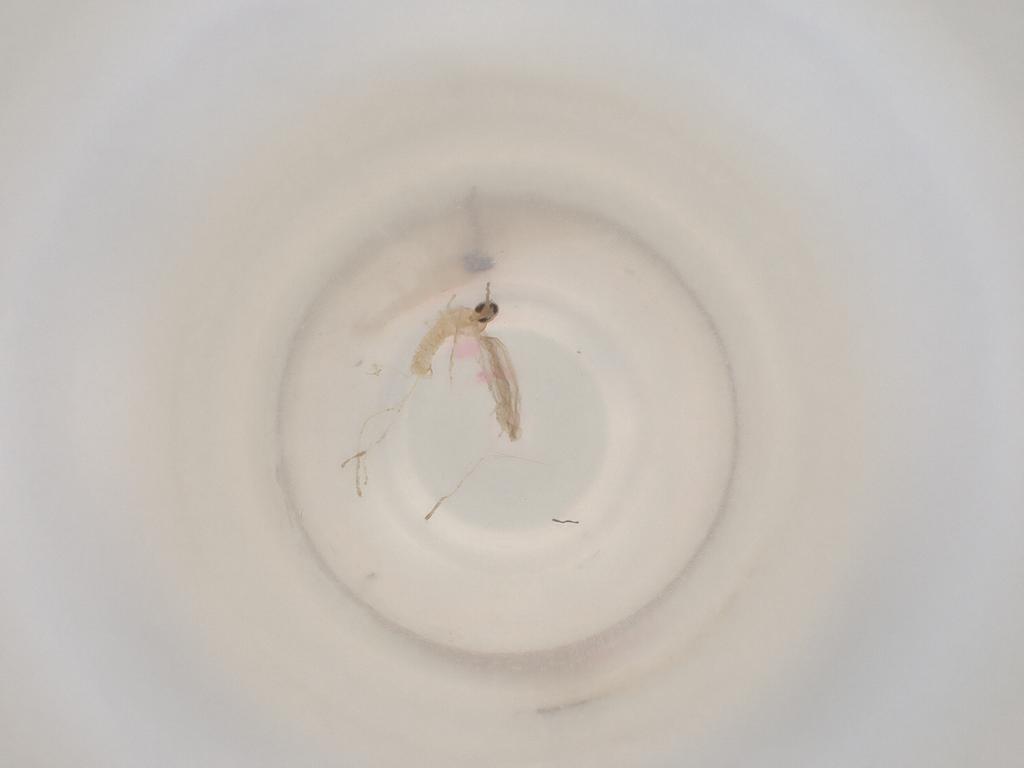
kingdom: Animalia
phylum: Arthropoda
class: Insecta
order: Diptera
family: Cecidomyiidae
